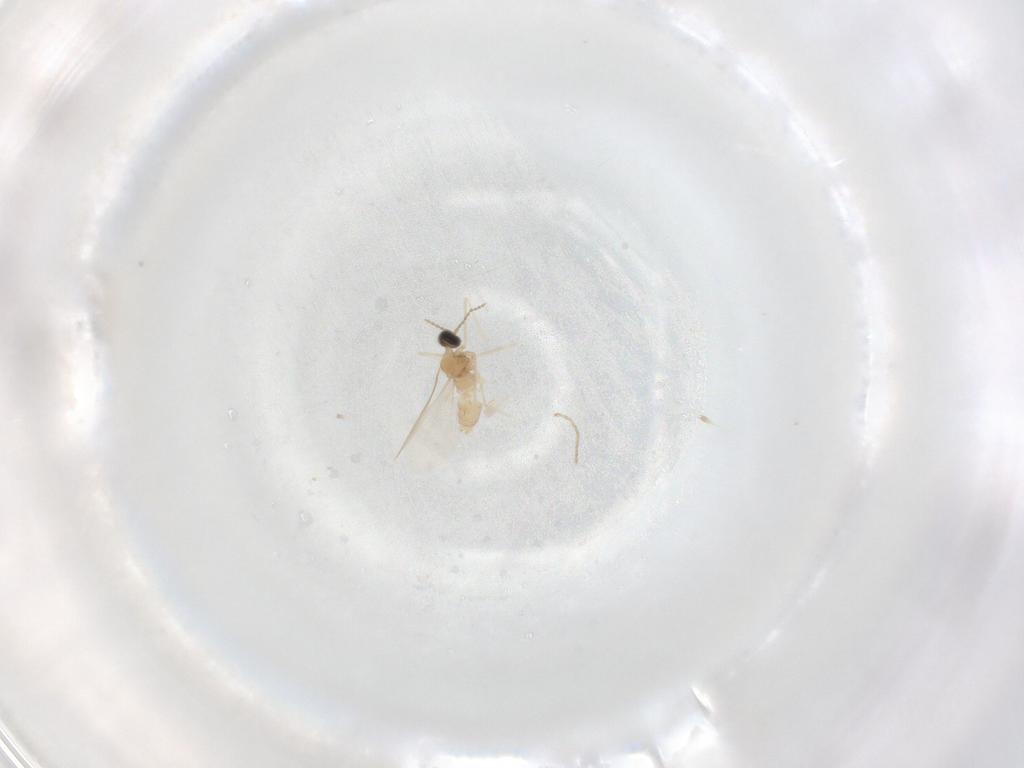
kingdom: Animalia
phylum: Arthropoda
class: Insecta
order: Diptera
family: Cecidomyiidae
